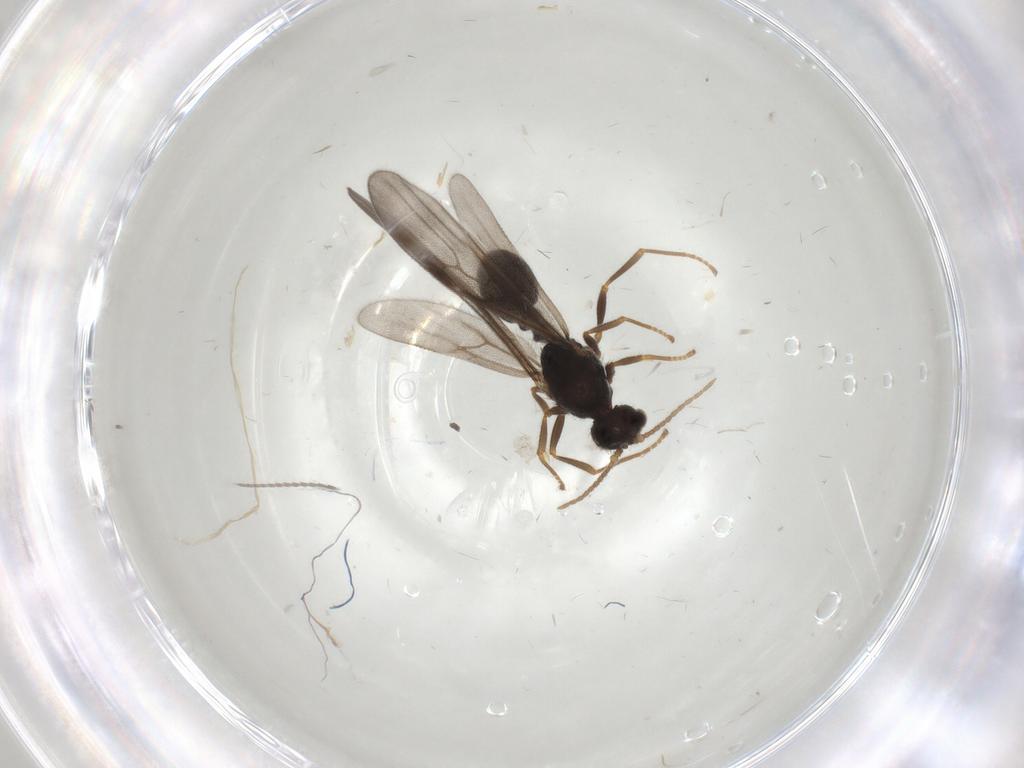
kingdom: Animalia
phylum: Arthropoda
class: Insecta
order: Hymenoptera
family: Formicidae
